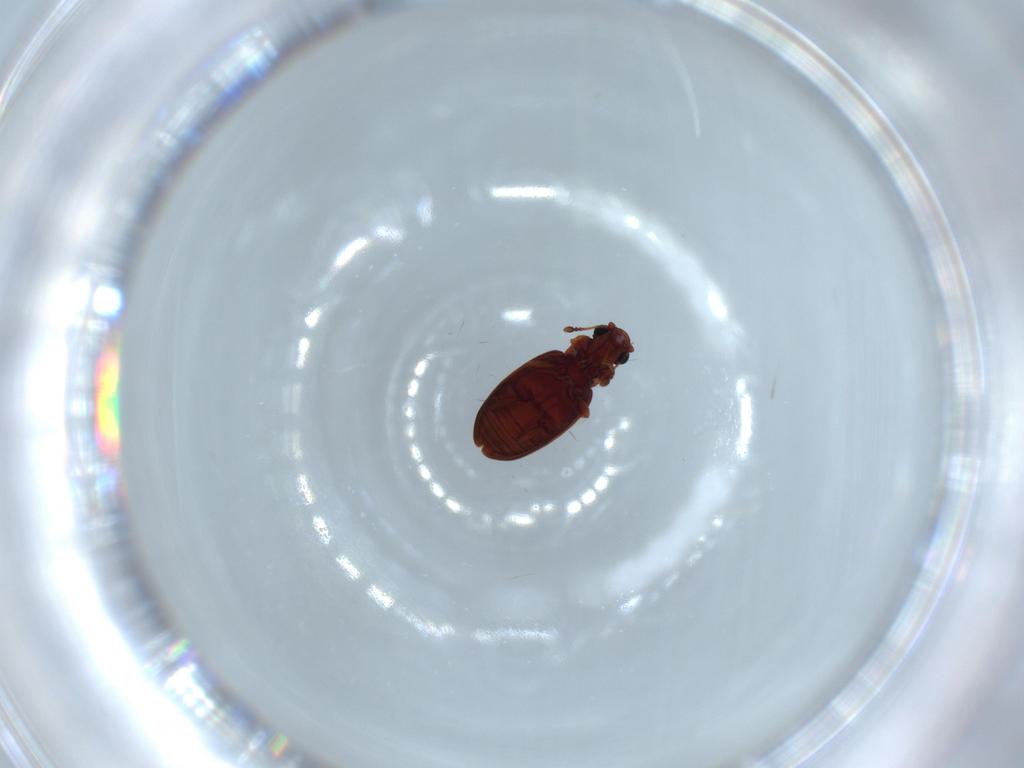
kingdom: Animalia
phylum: Arthropoda
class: Insecta
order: Coleoptera
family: Latridiidae
